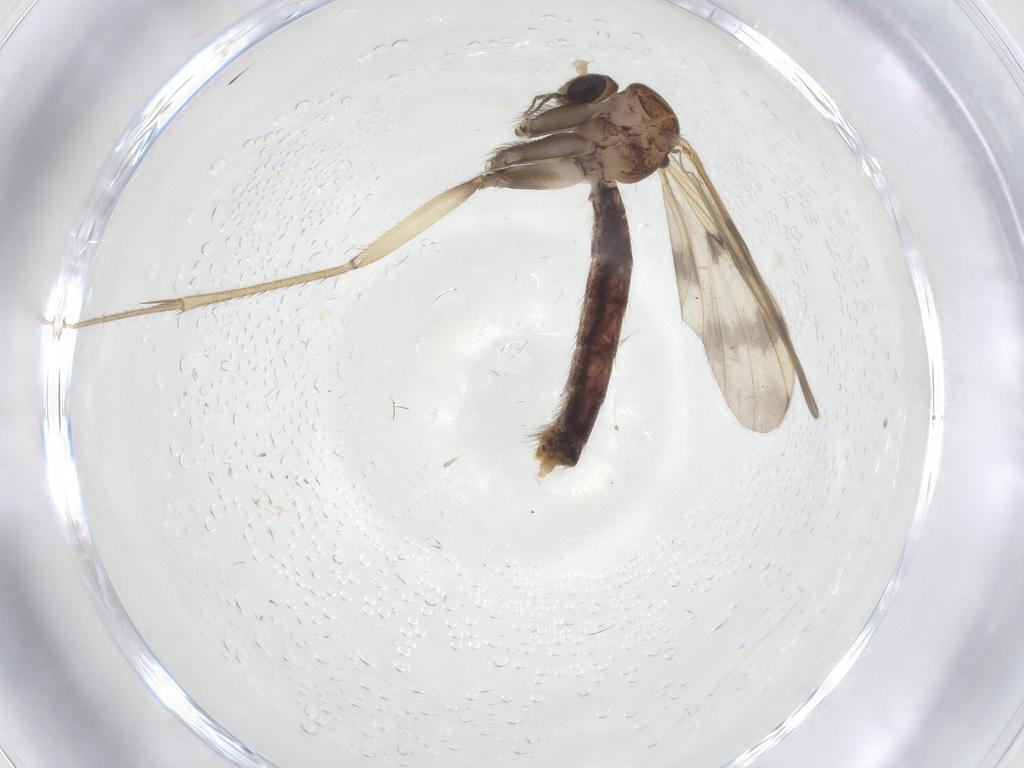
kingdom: Animalia
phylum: Arthropoda
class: Insecta
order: Diptera
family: Mycetophilidae
